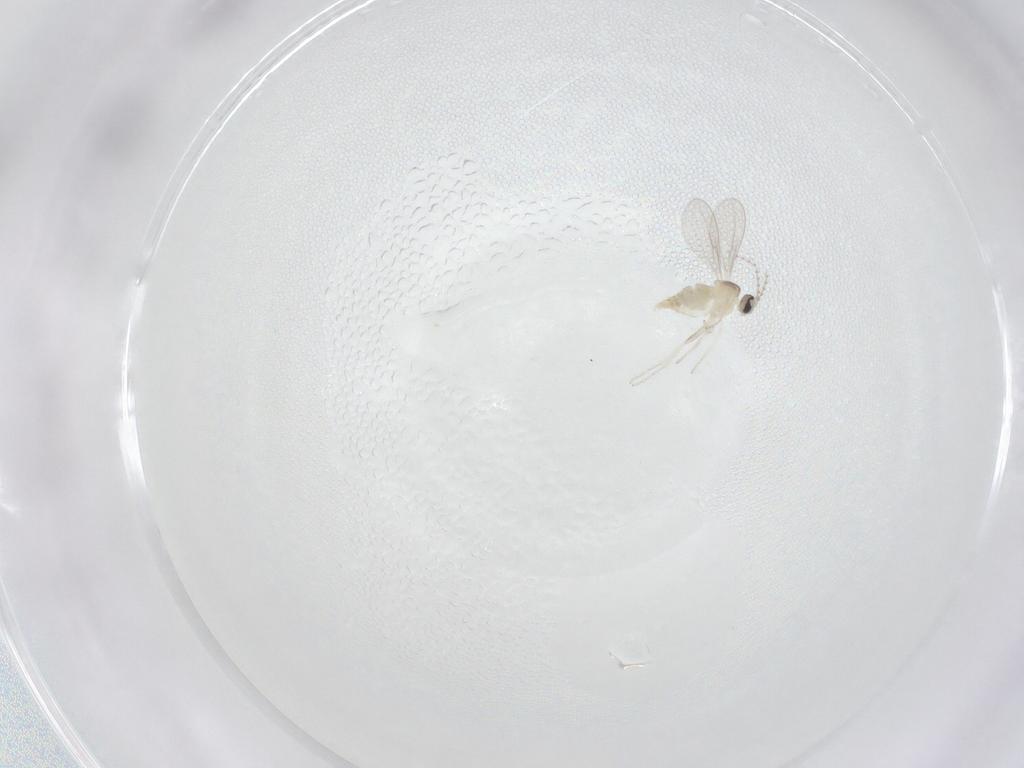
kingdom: Animalia
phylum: Arthropoda
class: Insecta
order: Diptera
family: Cecidomyiidae
